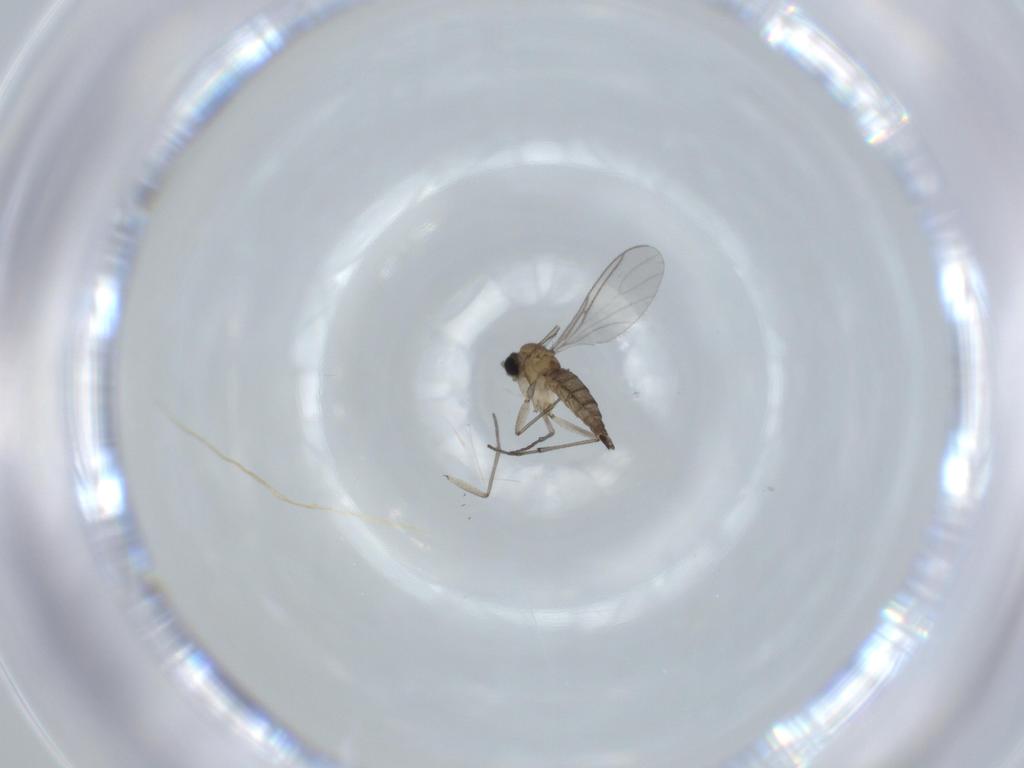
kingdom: Animalia
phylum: Arthropoda
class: Insecta
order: Diptera
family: Sciaridae
